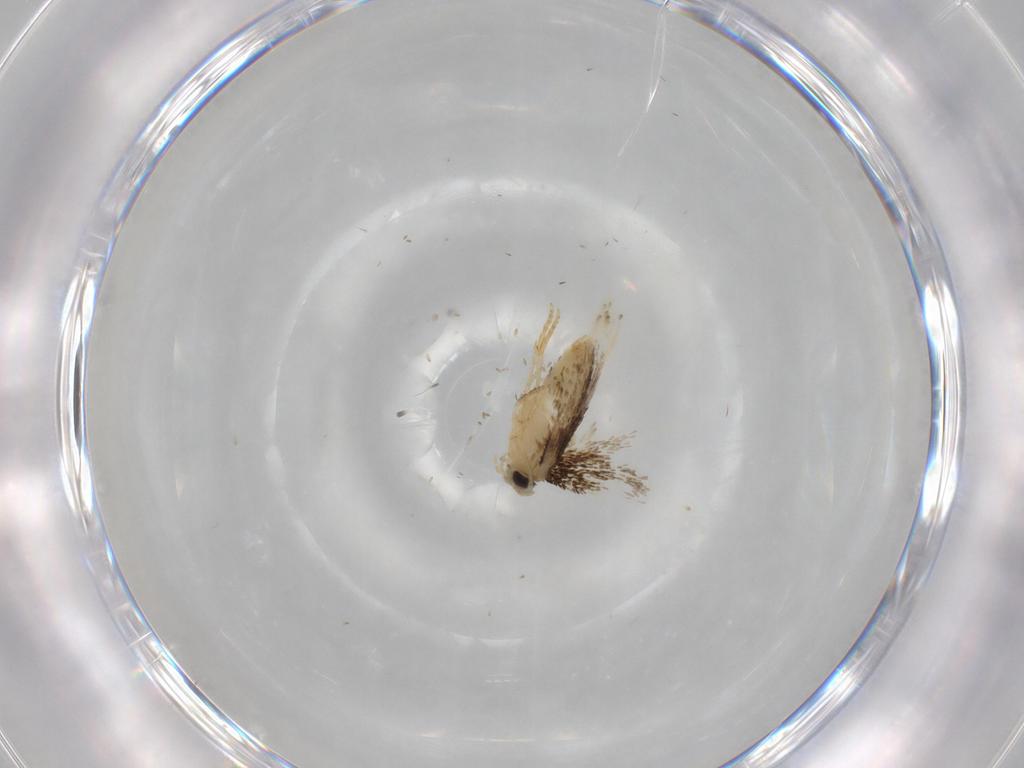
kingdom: Animalia
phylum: Arthropoda
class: Insecta
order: Lepidoptera
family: Nepticulidae
